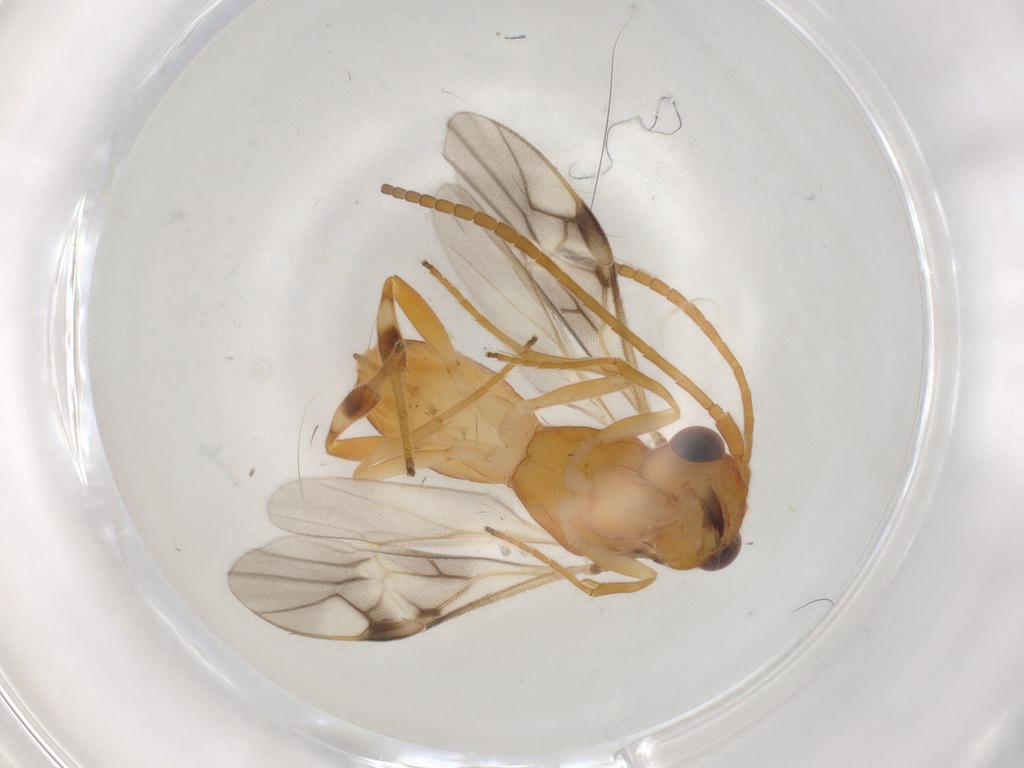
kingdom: Animalia
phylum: Arthropoda
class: Insecta
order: Hymenoptera
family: Braconidae
